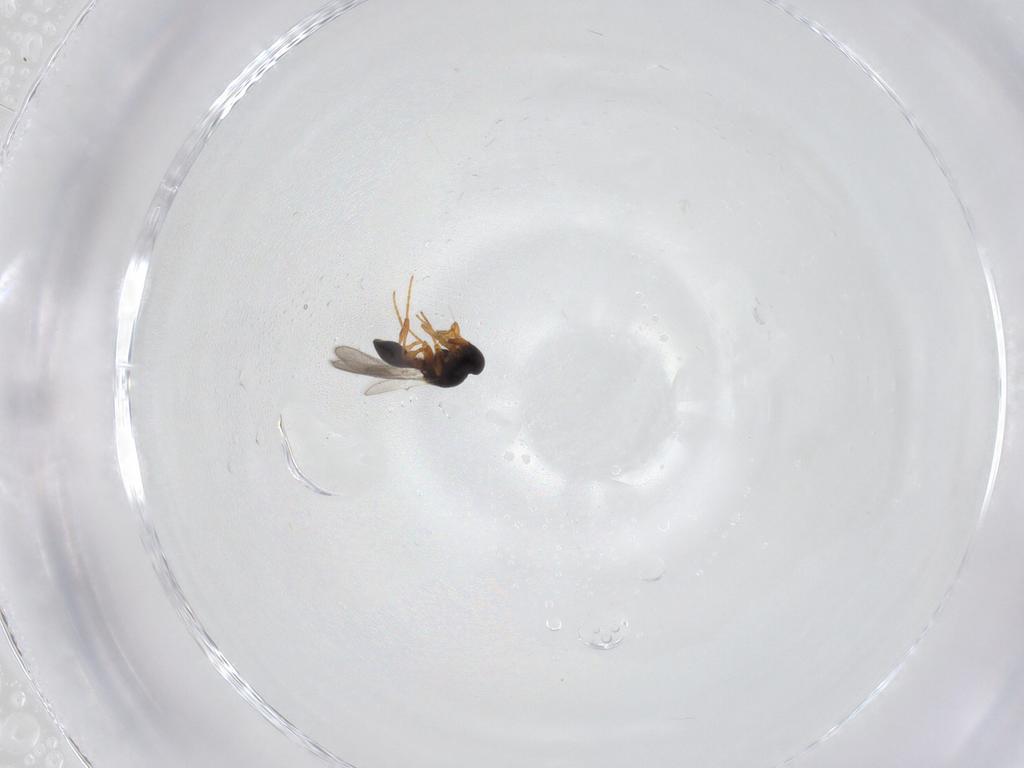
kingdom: Animalia
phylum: Arthropoda
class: Insecta
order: Hymenoptera
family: Platygastridae
